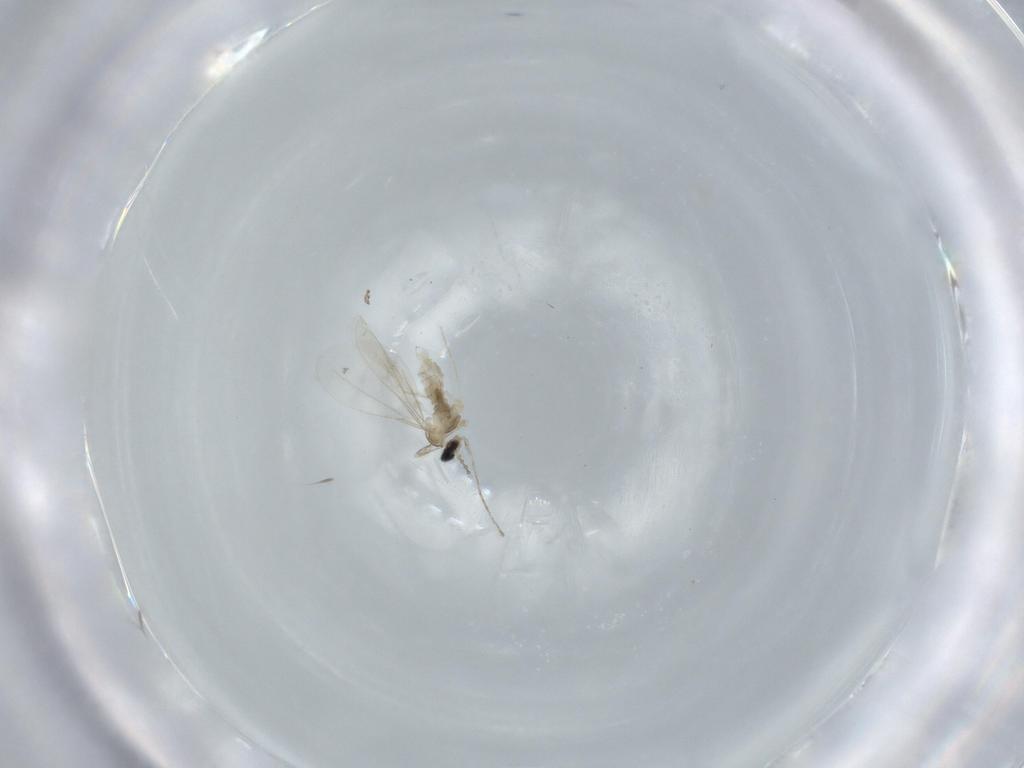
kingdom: Animalia
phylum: Arthropoda
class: Insecta
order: Diptera
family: Cecidomyiidae
